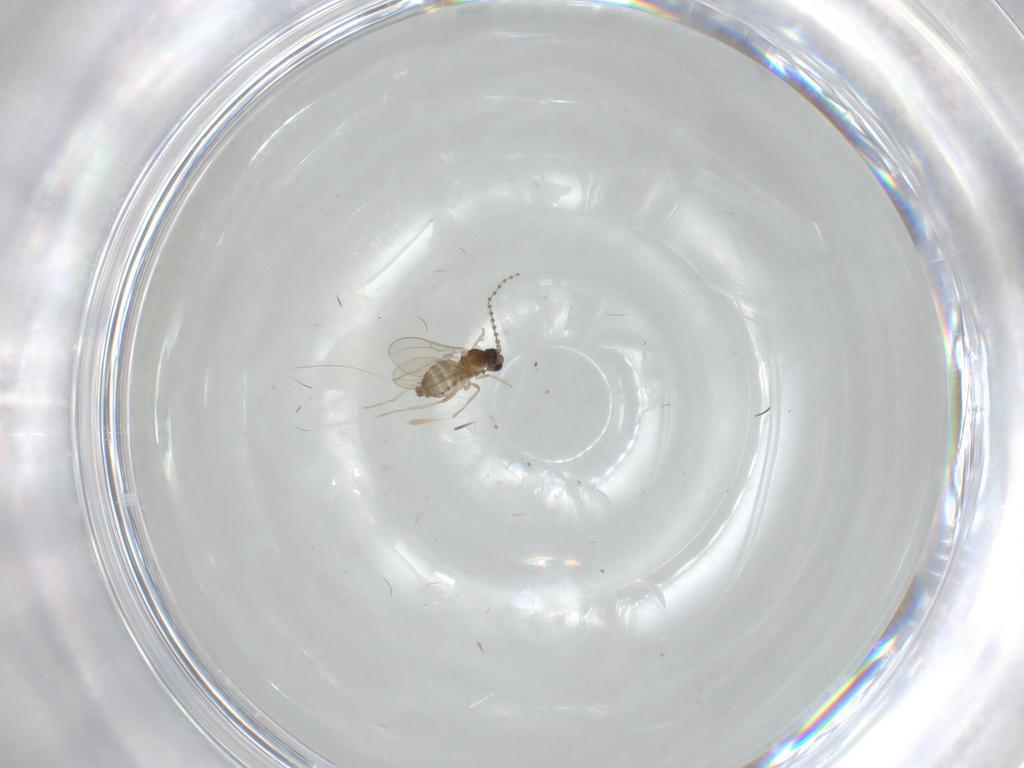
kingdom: Animalia
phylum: Arthropoda
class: Insecta
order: Diptera
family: Cecidomyiidae
